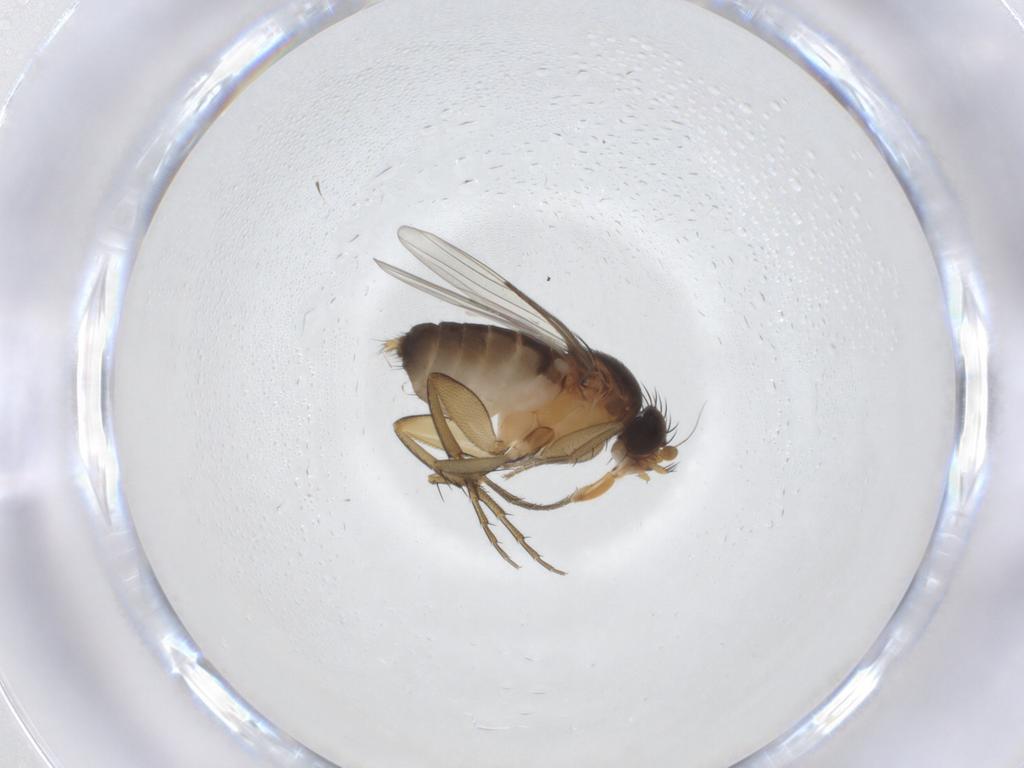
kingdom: Animalia
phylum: Arthropoda
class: Insecta
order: Diptera
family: Phoridae
